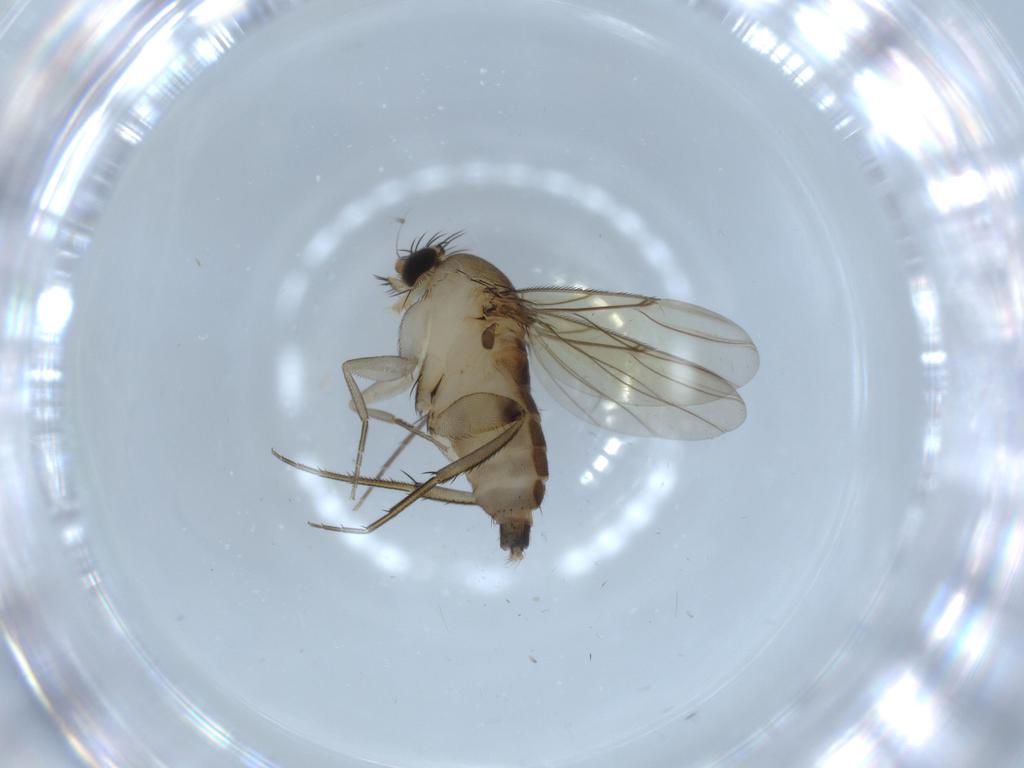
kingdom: Animalia
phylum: Arthropoda
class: Insecta
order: Diptera
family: Phoridae
